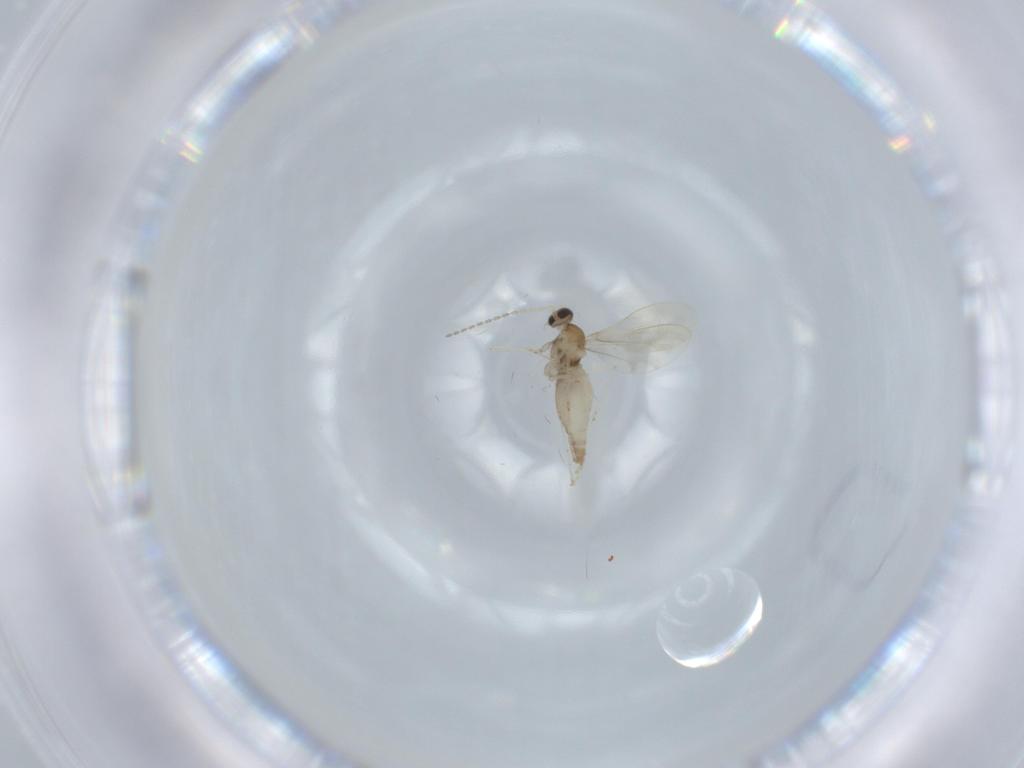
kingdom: Animalia
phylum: Arthropoda
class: Insecta
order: Diptera
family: Cecidomyiidae
